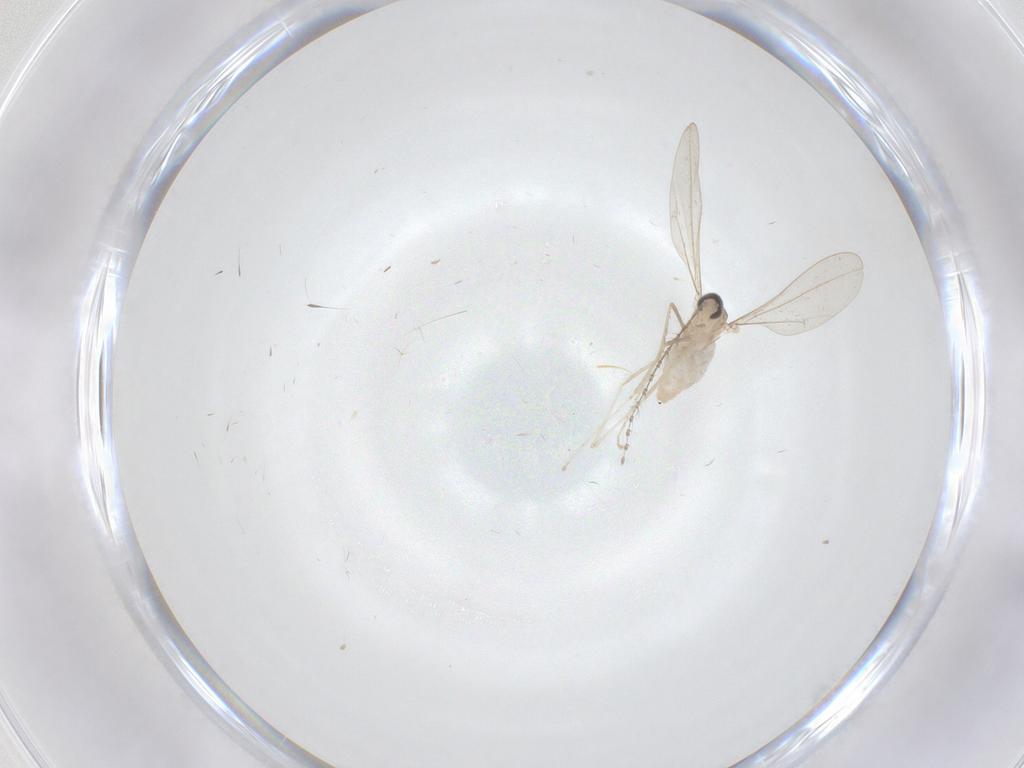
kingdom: Animalia
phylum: Arthropoda
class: Insecta
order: Diptera
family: Cecidomyiidae
